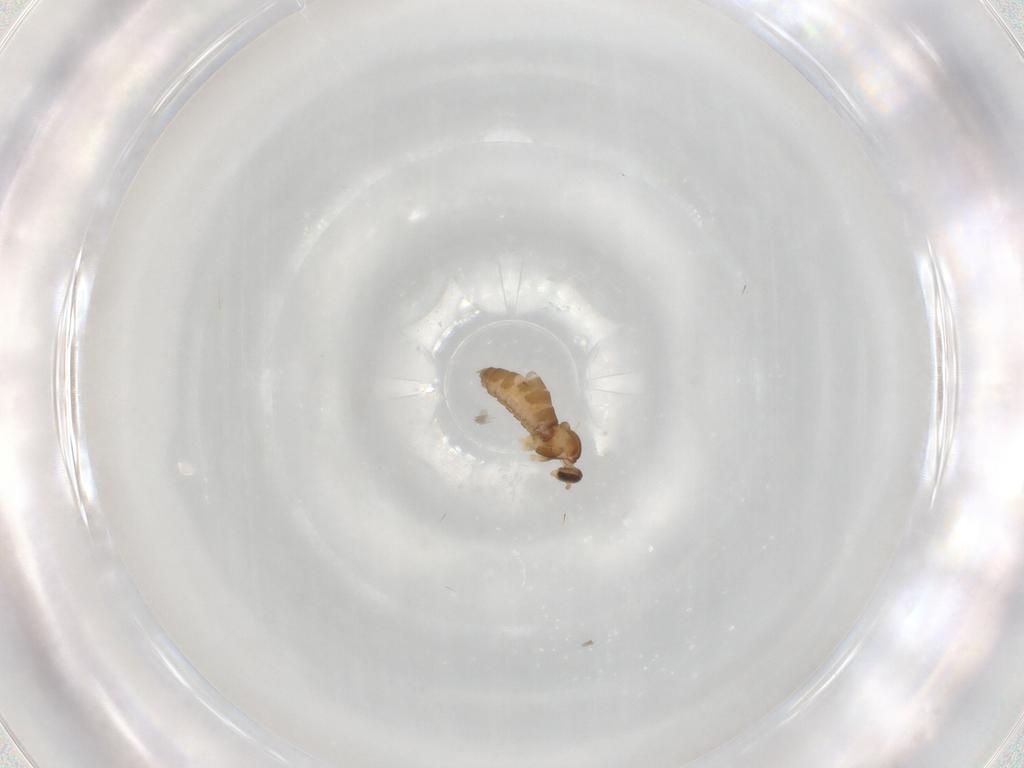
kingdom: Animalia
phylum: Arthropoda
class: Insecta
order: Diptera
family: Cecidomyiidae
